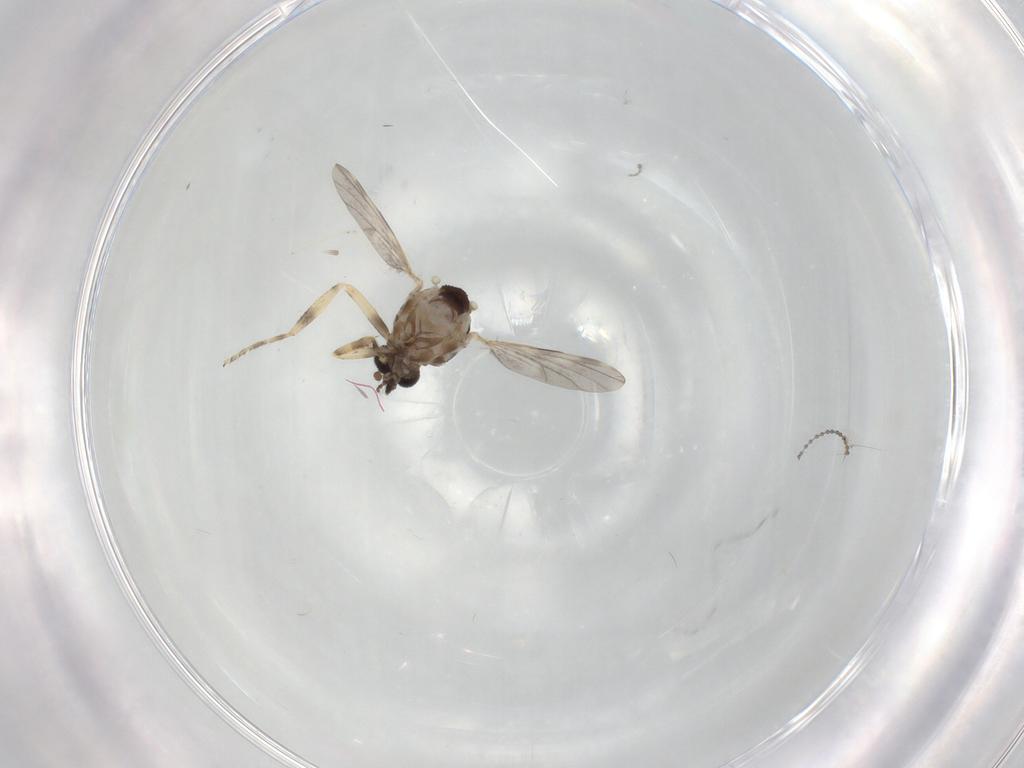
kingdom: Animalia
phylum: Arthropoda
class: Insecta
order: Diptera
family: Ceratopogonidae
